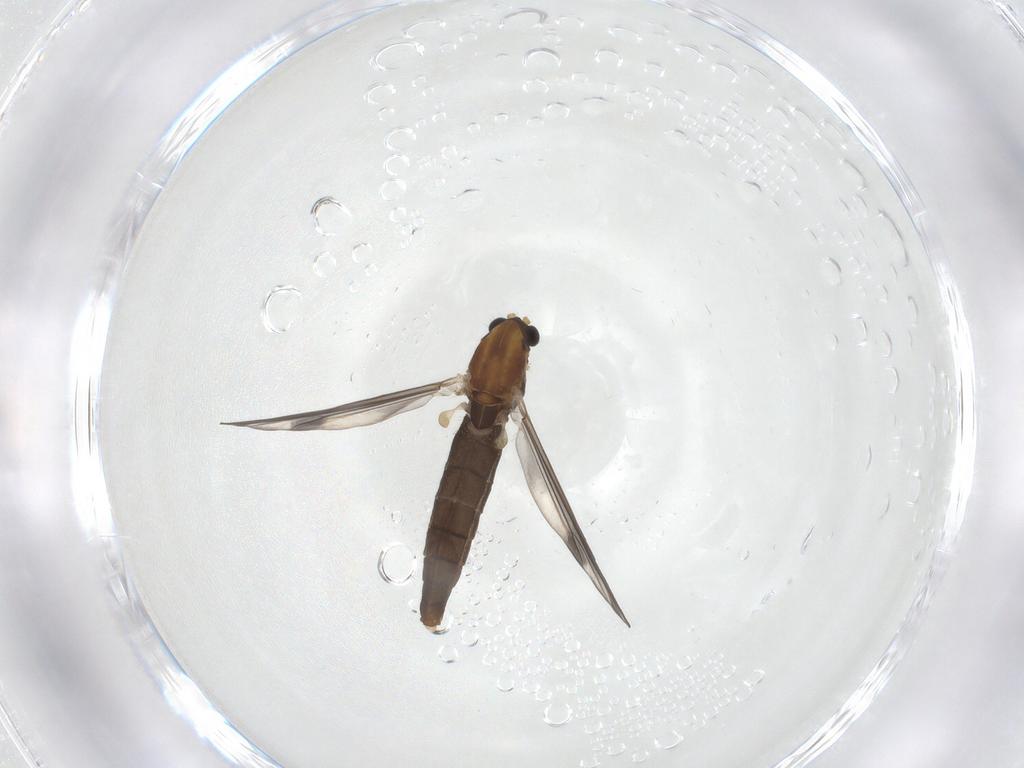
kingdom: Animalia
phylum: Arthropoda
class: Insecta
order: Diptera
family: Chironomidae
